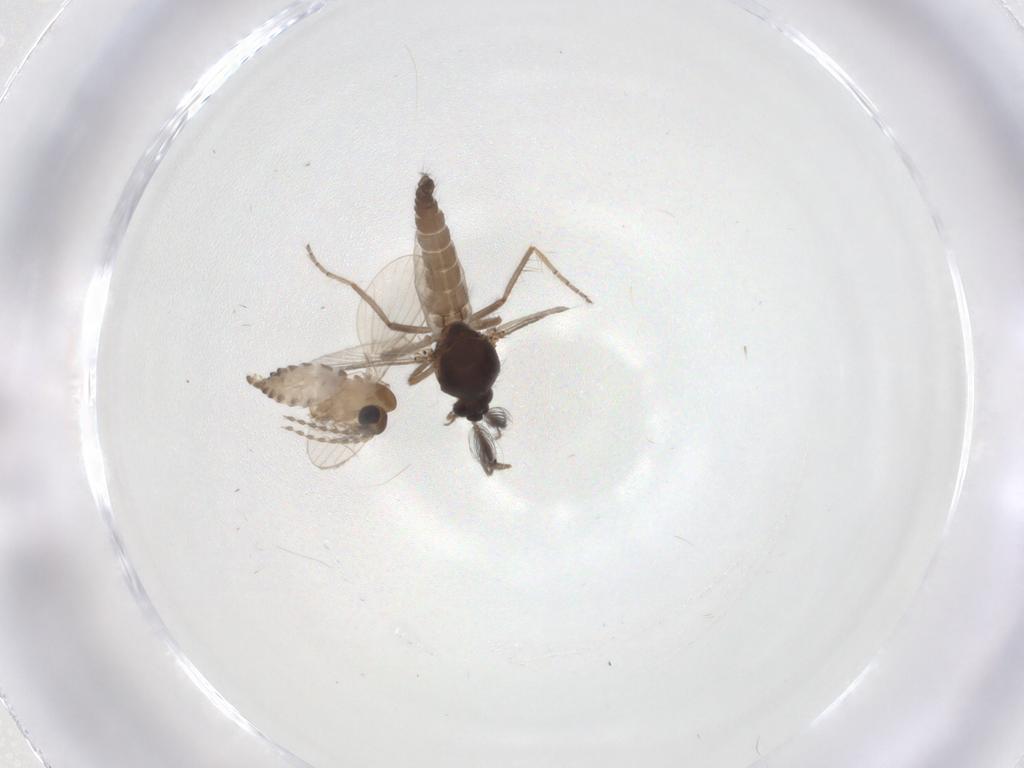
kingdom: Animalia
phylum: Arthropoda
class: Insecta
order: Diptera
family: Ceratopogonidae
